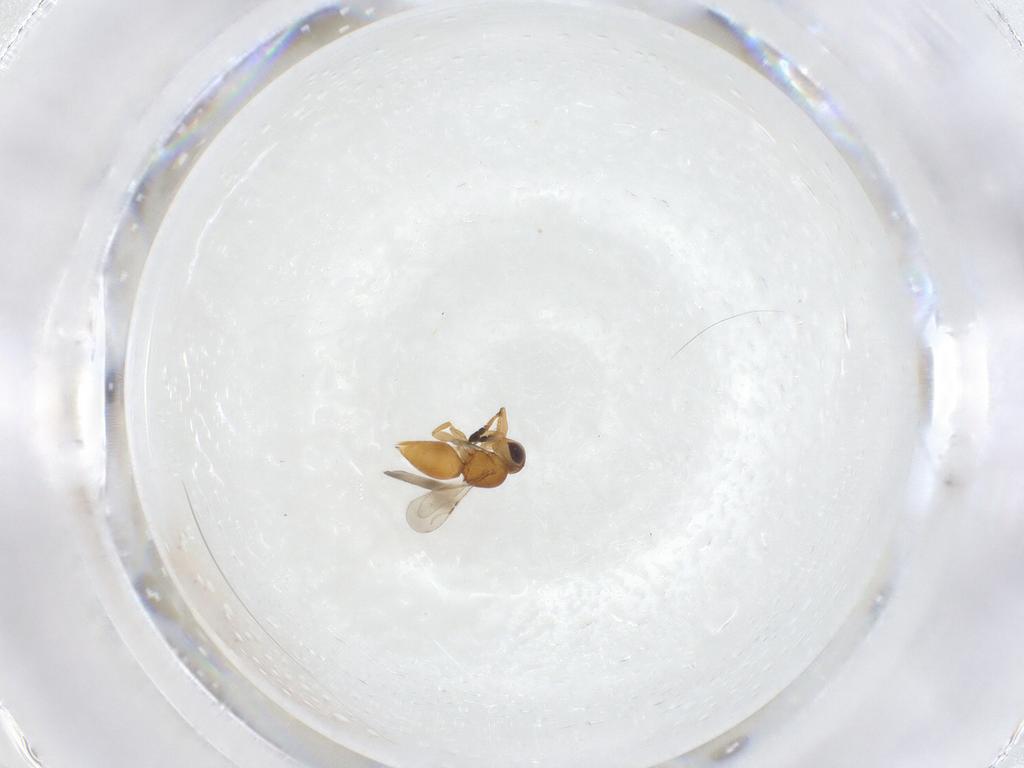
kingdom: Animalia
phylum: Arthropoda
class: Insecta
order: Hymenoptera
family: Ceraphronidae
